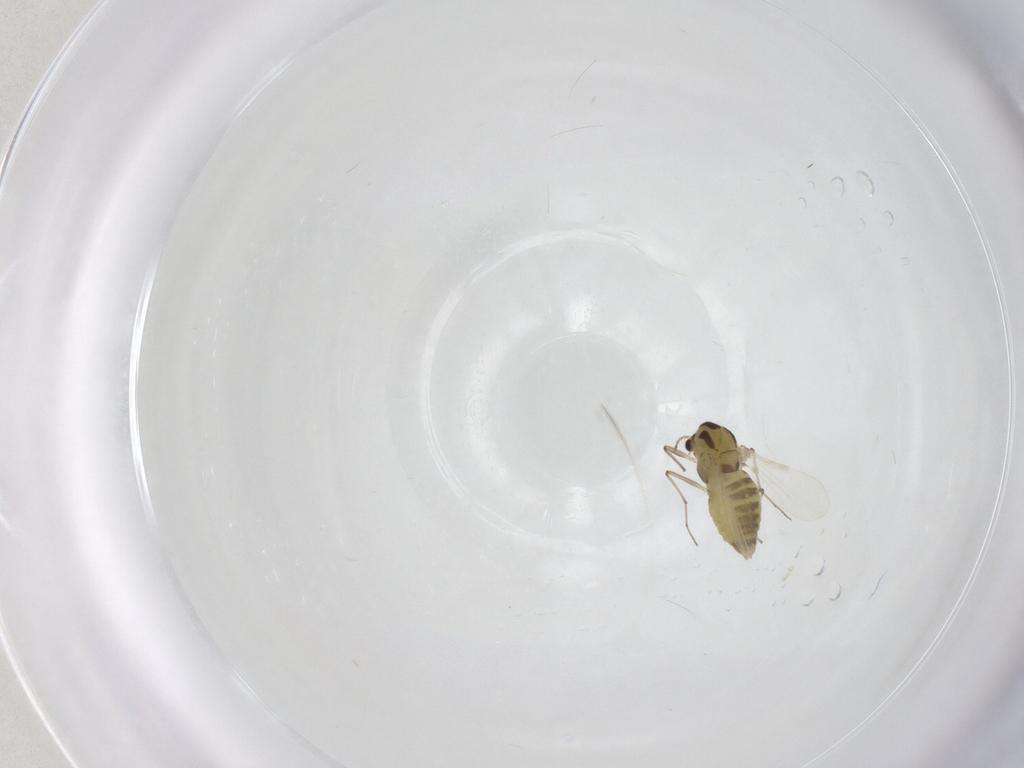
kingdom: Animalia
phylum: Arthropoda
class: Insecta
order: Diptera
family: Chironomidae
